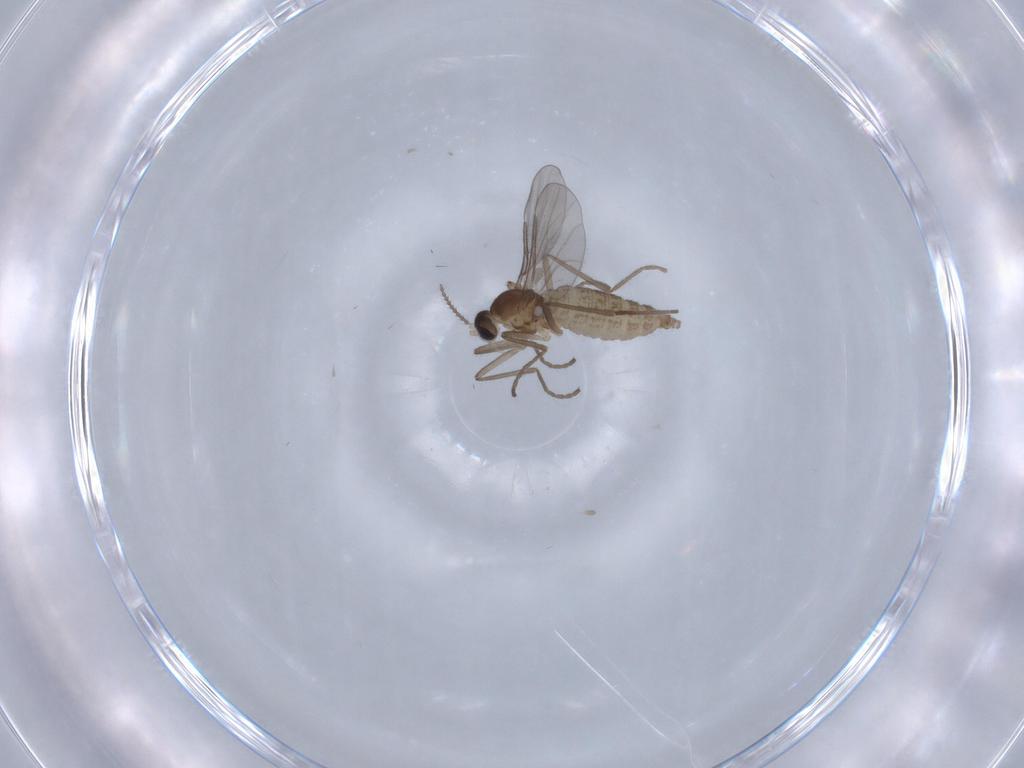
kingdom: Animalia
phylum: Arthropoda
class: Insecta
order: Diptera
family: Cecidomyiidae
